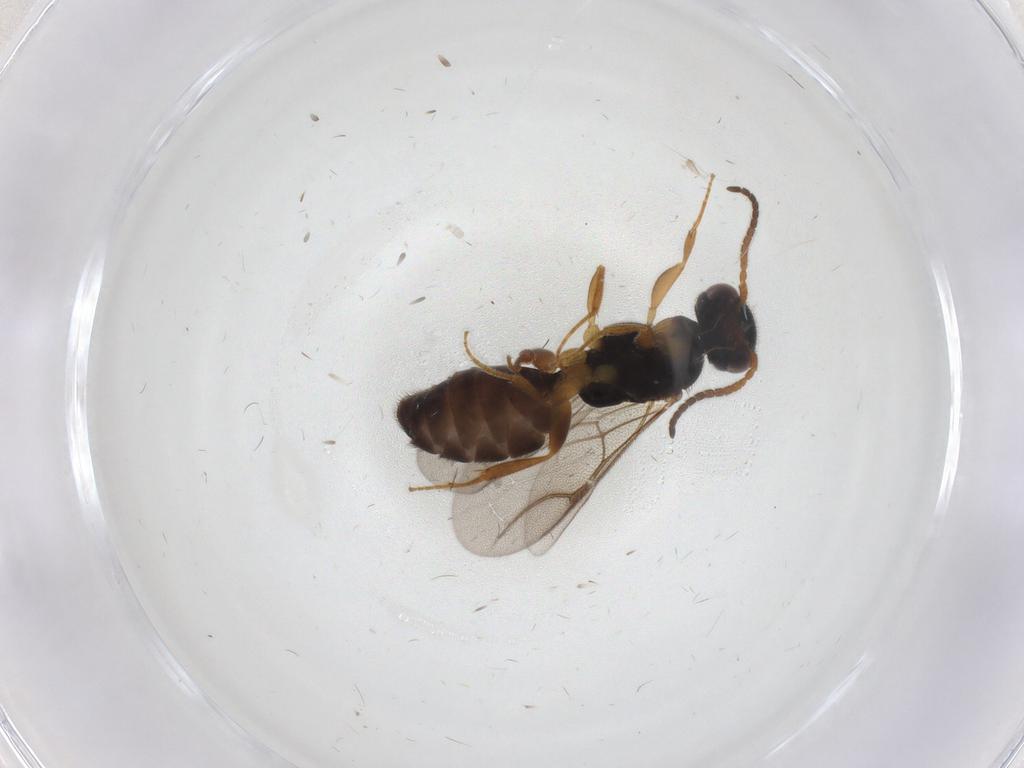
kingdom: Animalia
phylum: Arthropoda
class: Insecta
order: Hymenoptera
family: Bethylidae
